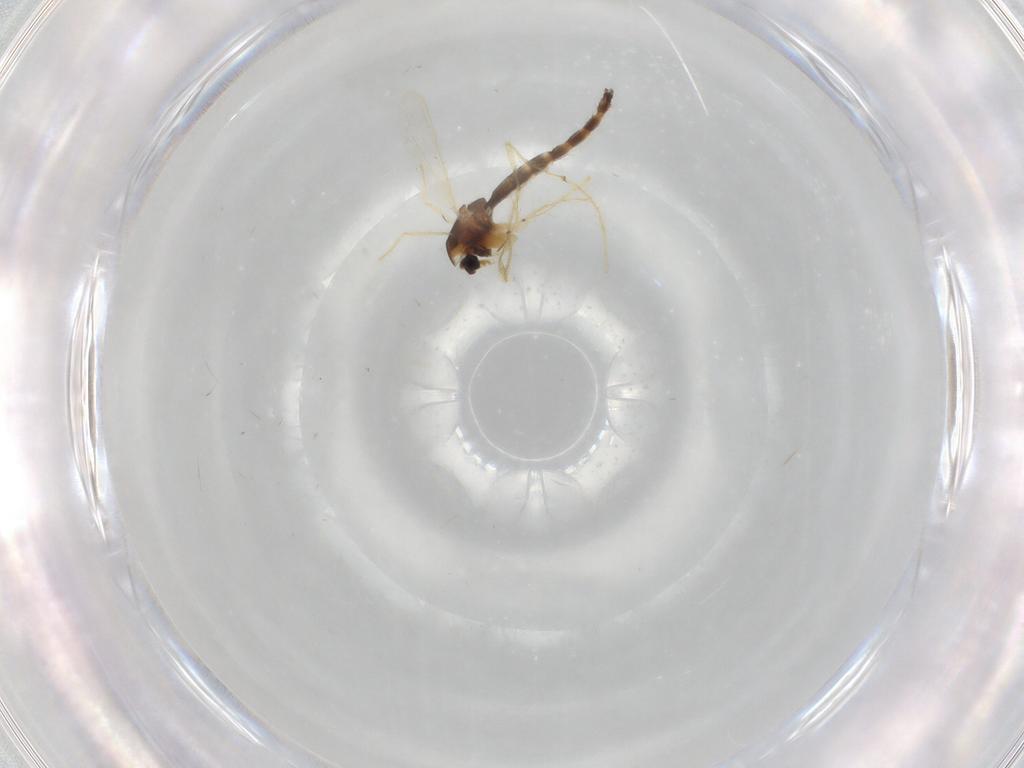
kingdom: Animalia
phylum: Arthropoda
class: Insecta
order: Diptera
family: Chironomidae
